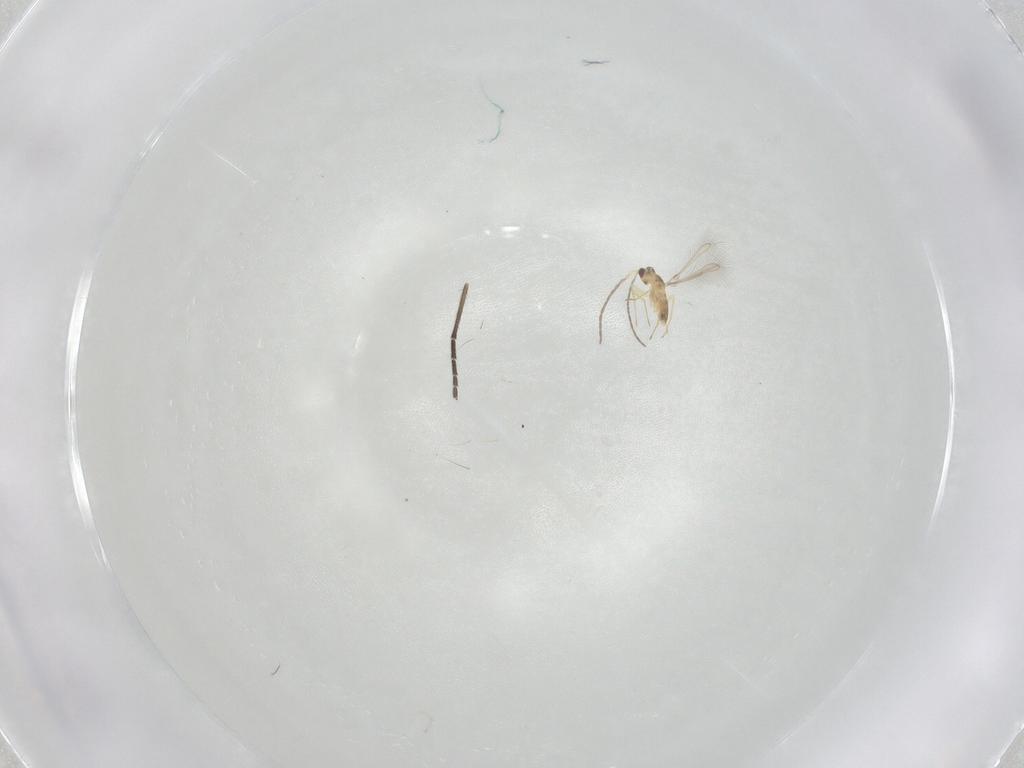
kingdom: Animalia
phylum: Arthropoda
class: Insecta
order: Hymenoptera
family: Mymaridae
